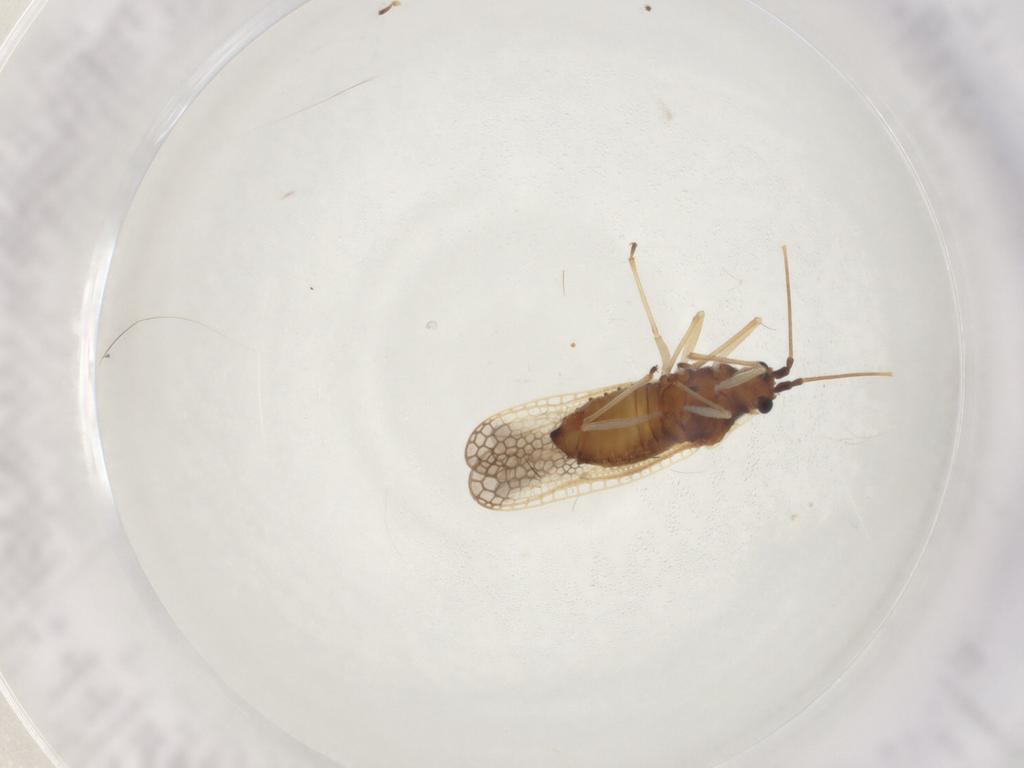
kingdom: Animalia
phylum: Arthropoda
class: Insecta
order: Hemiptera
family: Tingidae
